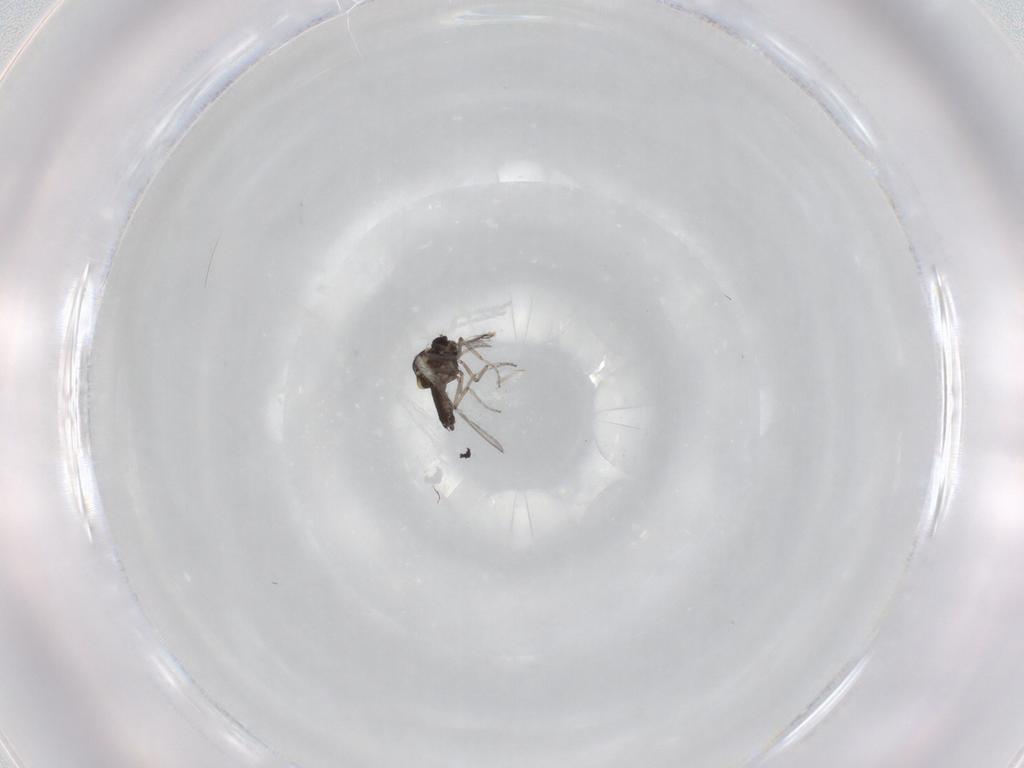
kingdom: Animalia
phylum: Arthropoda
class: Insecta
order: Diptera
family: Ceratopogonidae
